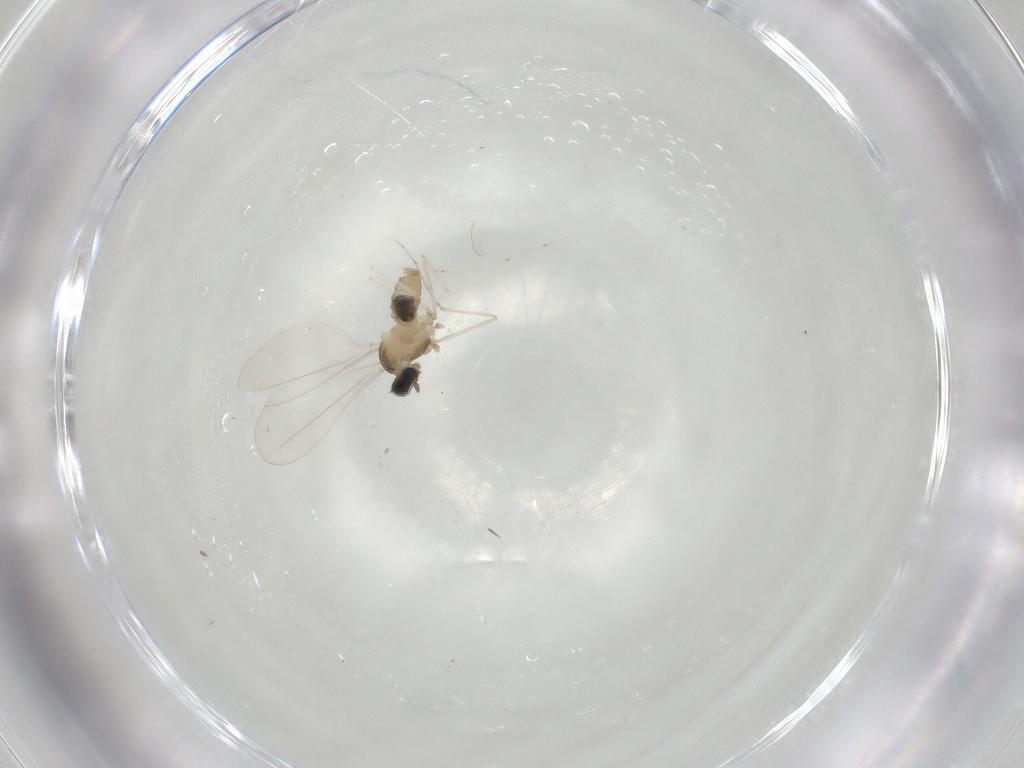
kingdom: Animalia
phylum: Arthropoda
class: Insecta
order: Diptera
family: Cecidomyiidae
